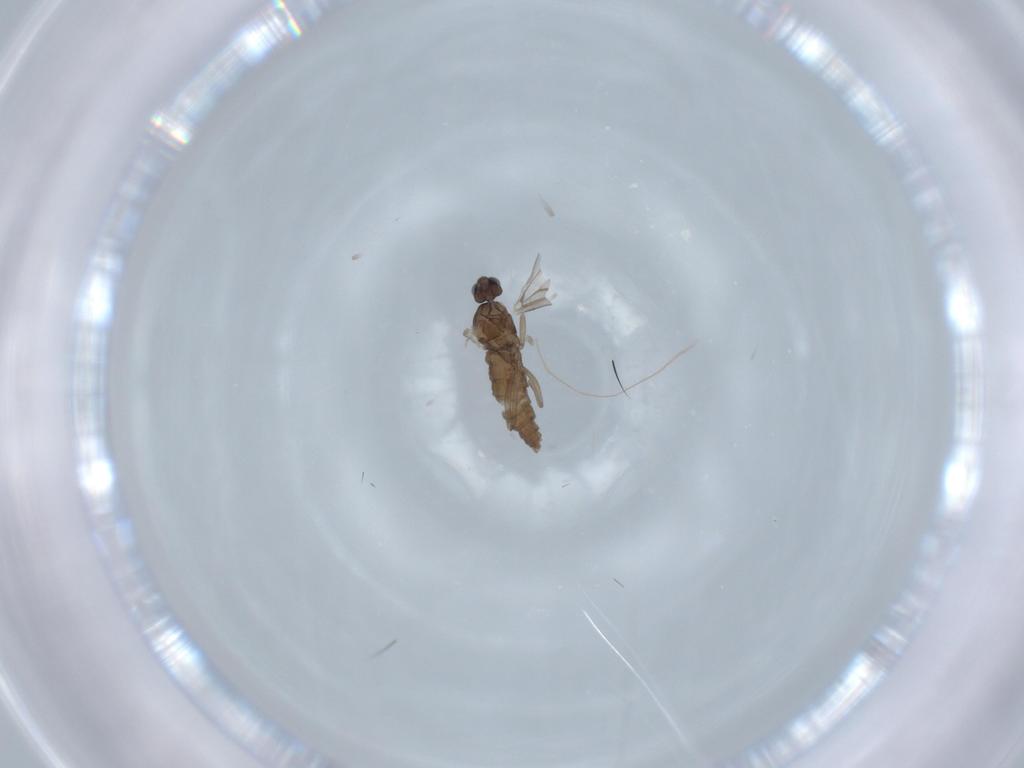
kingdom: Animalia
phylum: Arthropoda
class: Insecta
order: Diptera
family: Cecidomyiidae
